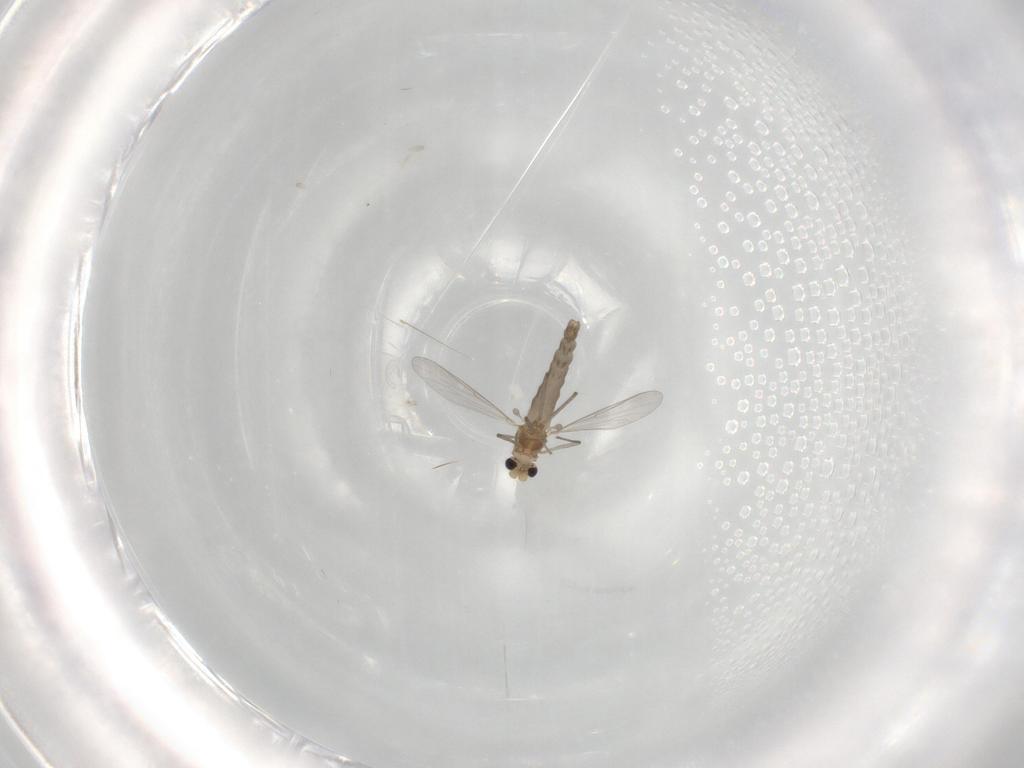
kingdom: Animalia
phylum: Arthropoda
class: Insecta
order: Diptera
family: Chironomidae
